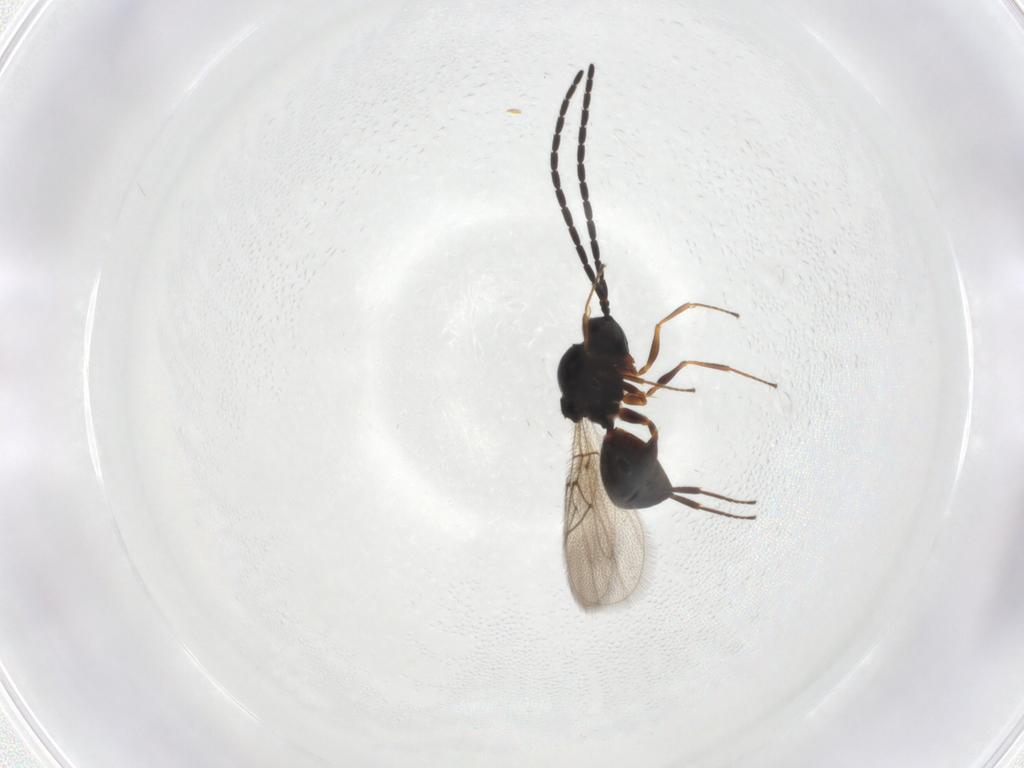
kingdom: Animalia
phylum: Arthropoda
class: Insecta
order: Hymenoptera
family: Figitidae
